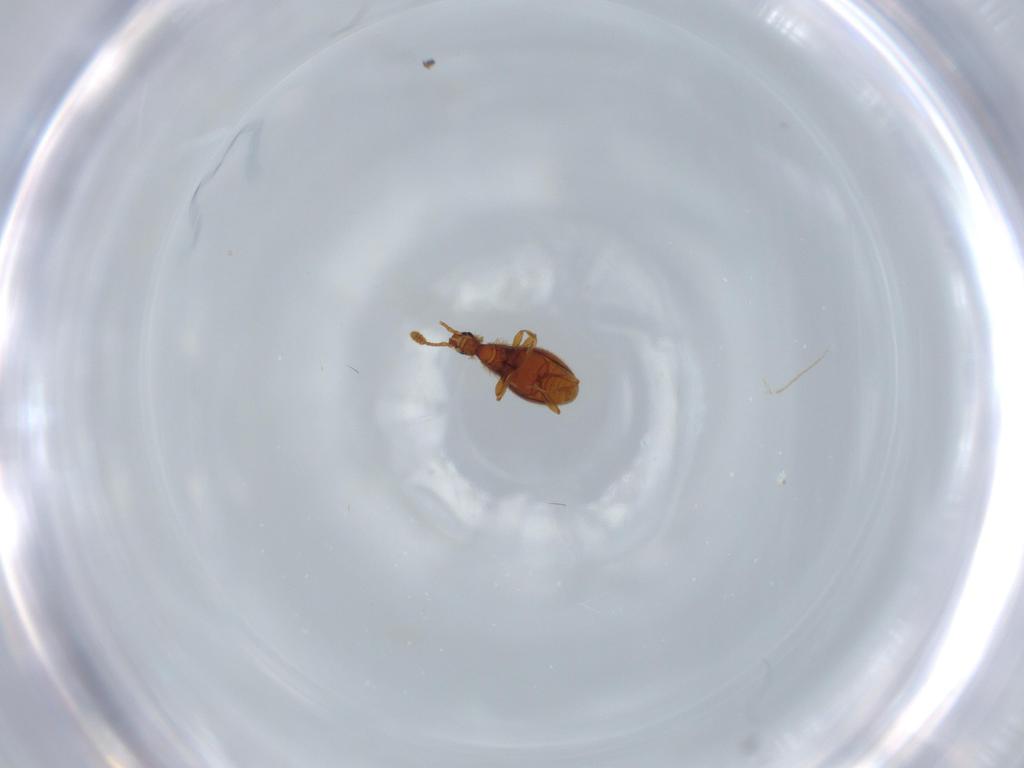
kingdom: Animalia
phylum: Arthropoda
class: Insecta
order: Coleoptera
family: Staphylinidae
